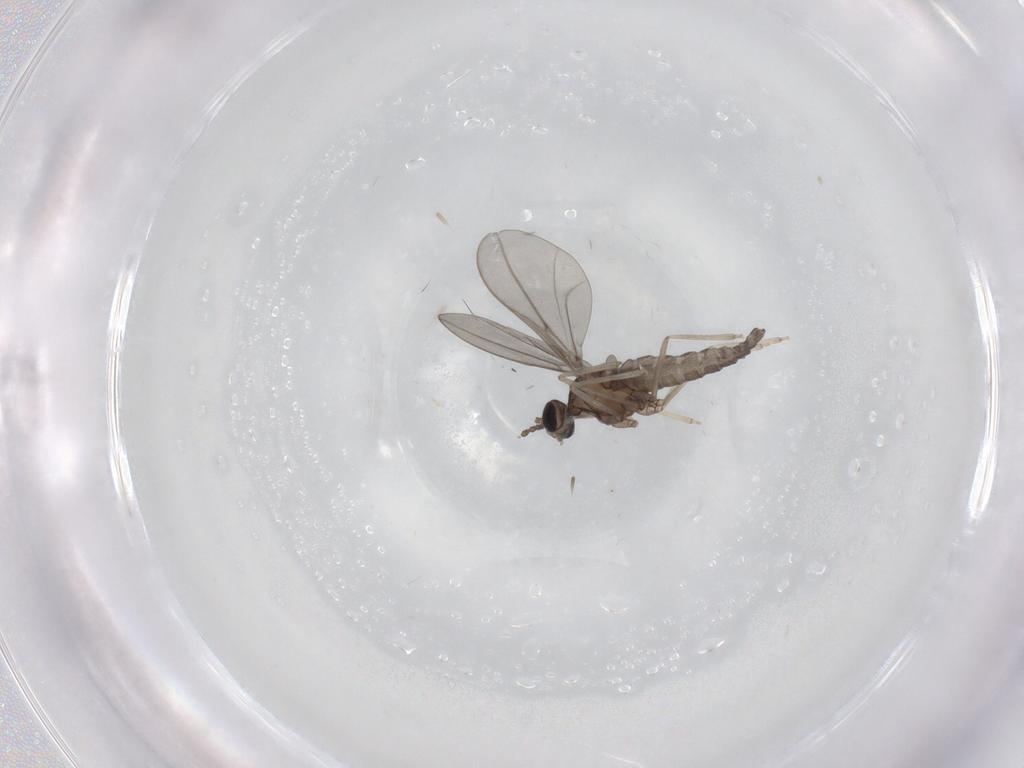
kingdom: Animalia
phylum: Arthropoda
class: Insecta
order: Diptera
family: Cecidomyiidae
